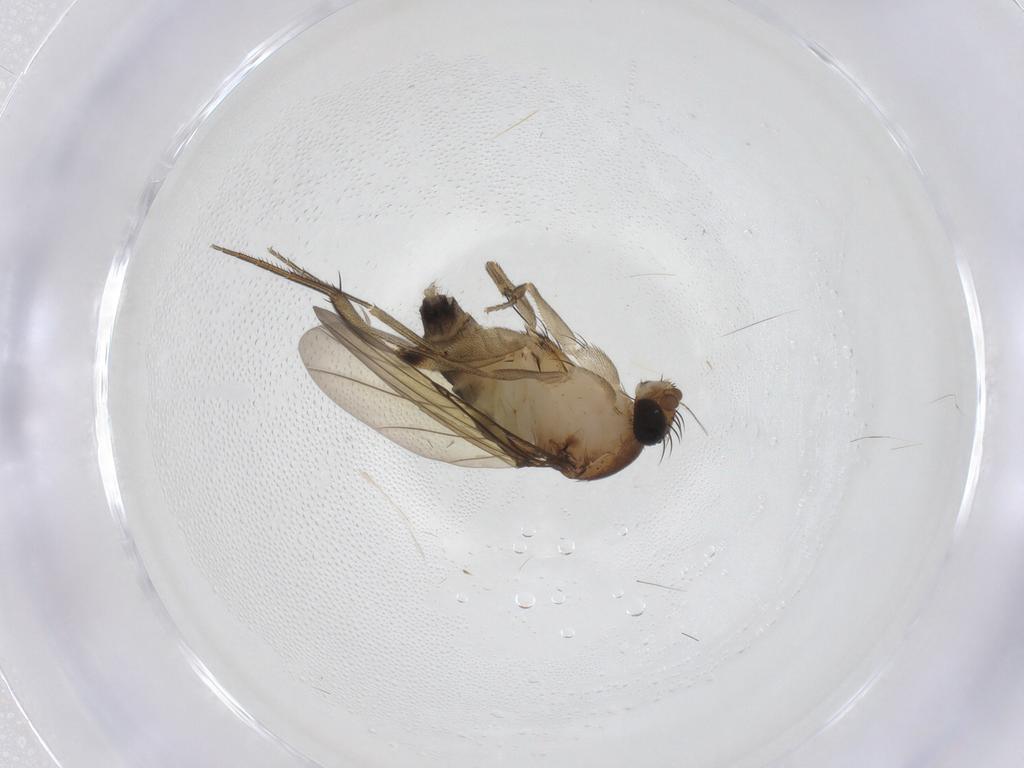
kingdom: Animalia
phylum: Arthropoda
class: Insecta
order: Diptera
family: Phoridae
